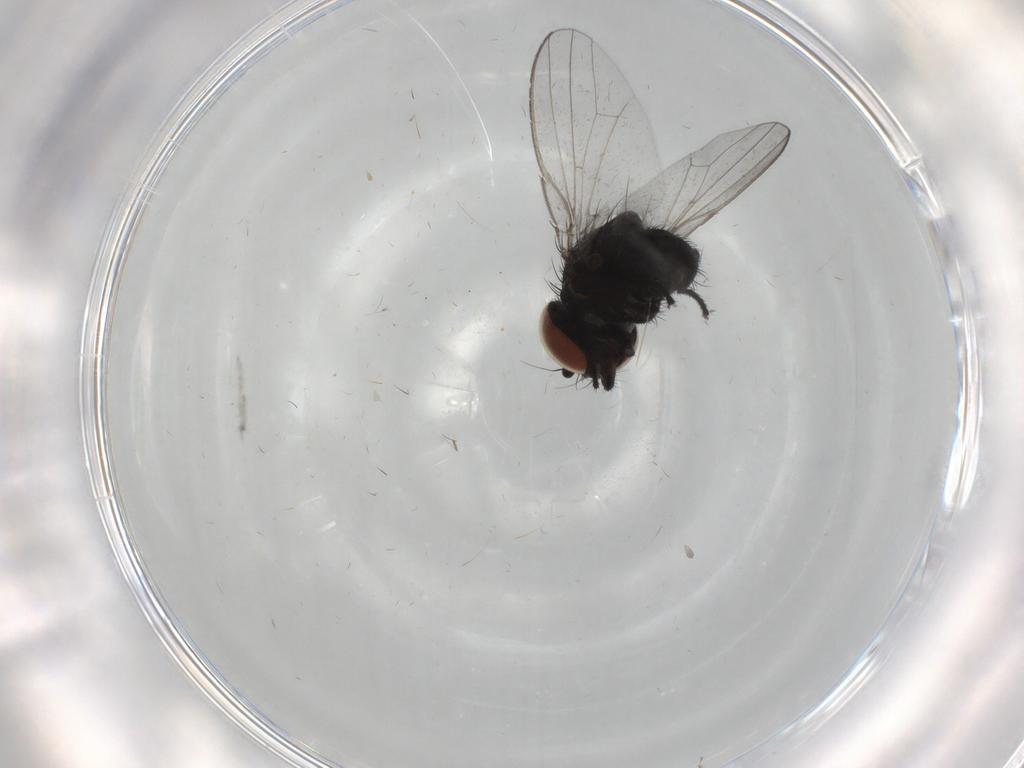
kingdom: Animalia
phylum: Arthropoda
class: Insecta
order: Diptera
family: Milichiidae
